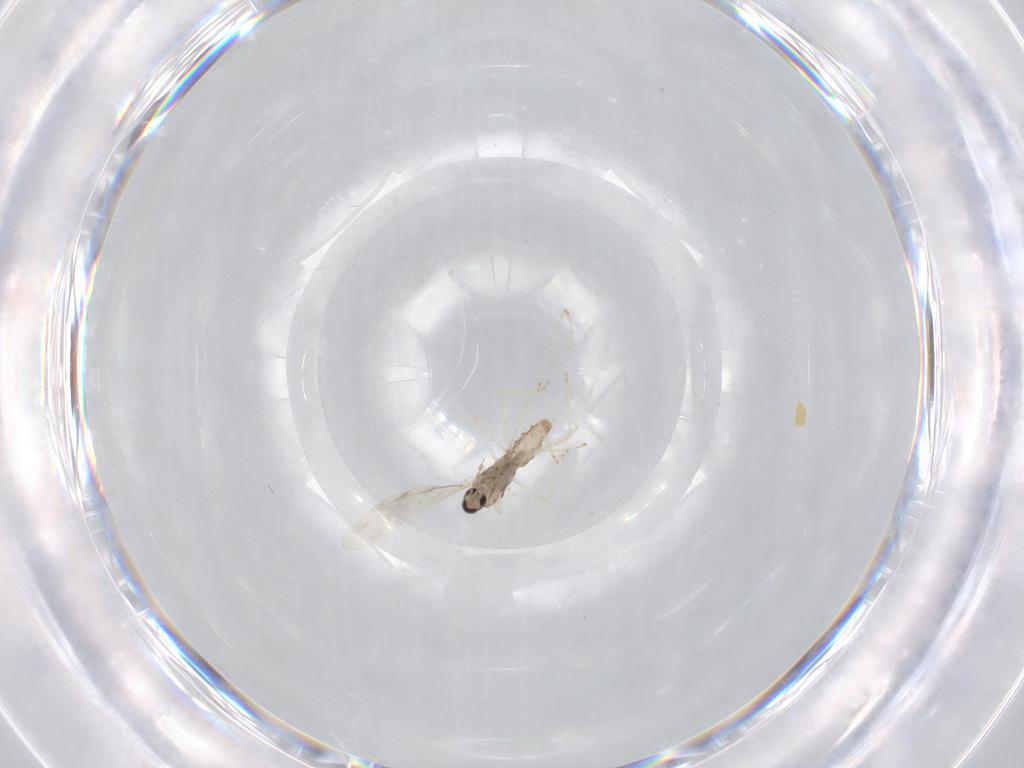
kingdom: Animalia
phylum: Arthropoda
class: Insecta
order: Diptera
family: Cecidomyiidae
